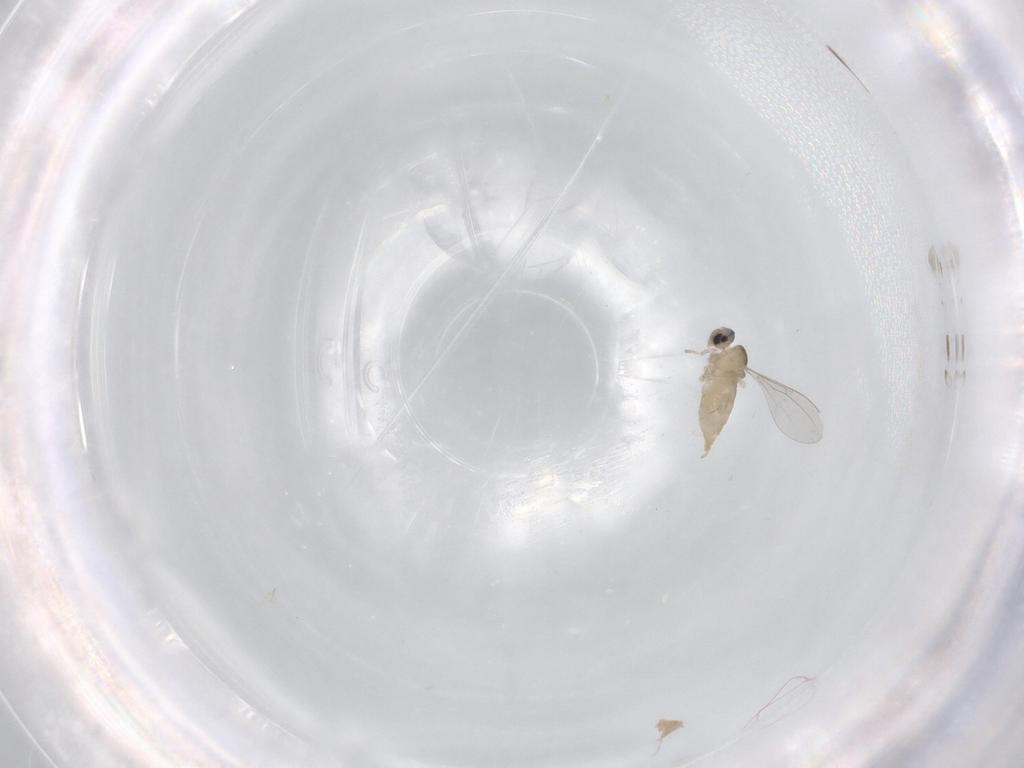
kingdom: Animalia
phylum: Arthropoda
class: Insecta
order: Diptera
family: Cecidomyiidae
